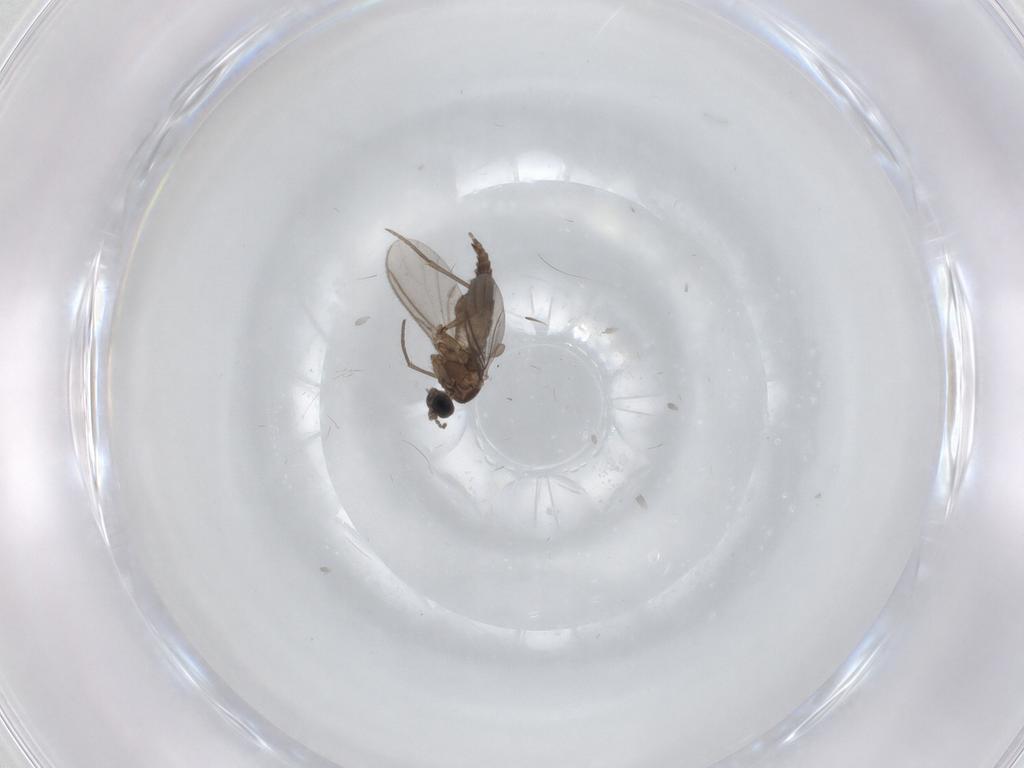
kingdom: Animalia
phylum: Arthropoda
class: Insecta
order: Diptera
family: Sciaridae
